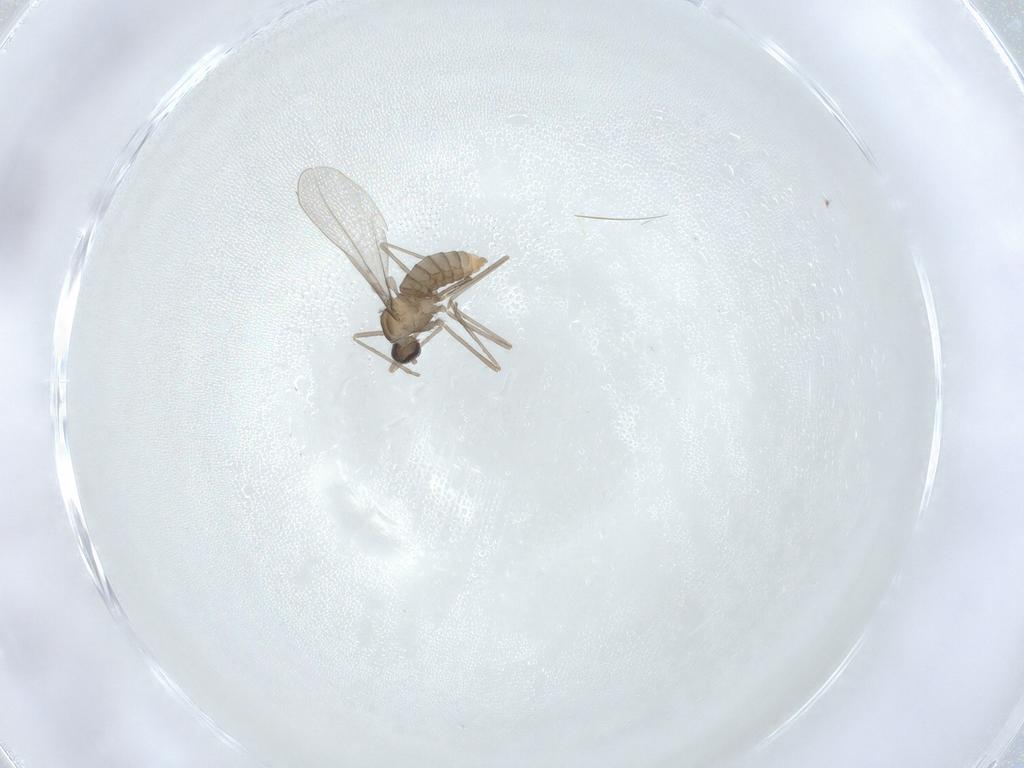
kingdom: Animalia
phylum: Arthropoda
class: Insecta
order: Diptera
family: Cecidomyiidae
